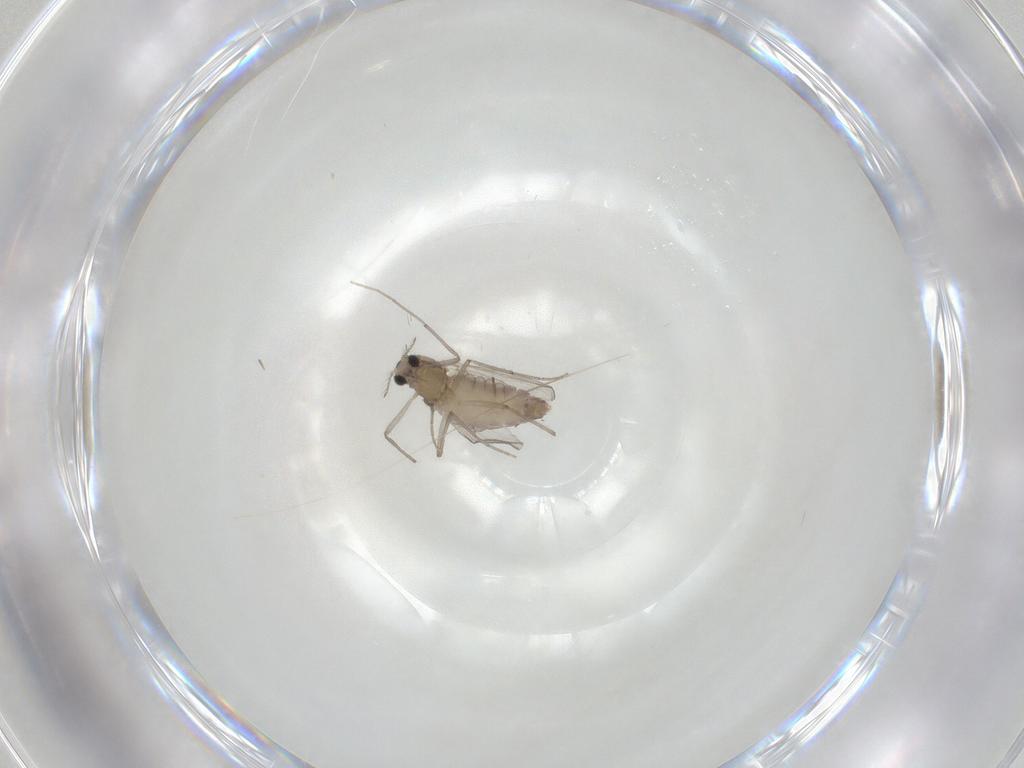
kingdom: Animalia
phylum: Arthropoda
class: Insecta
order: Diptera
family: Chironomidae
